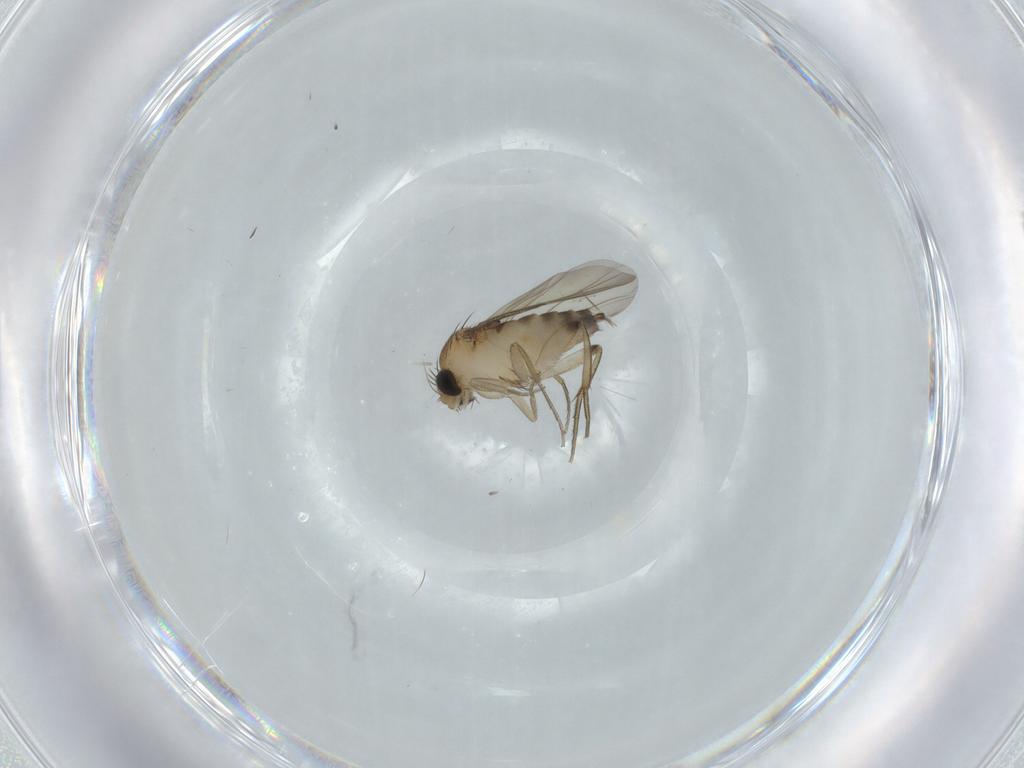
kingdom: Animalia
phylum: Arthropoda
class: Insecta
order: Diptera
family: Phoridae
